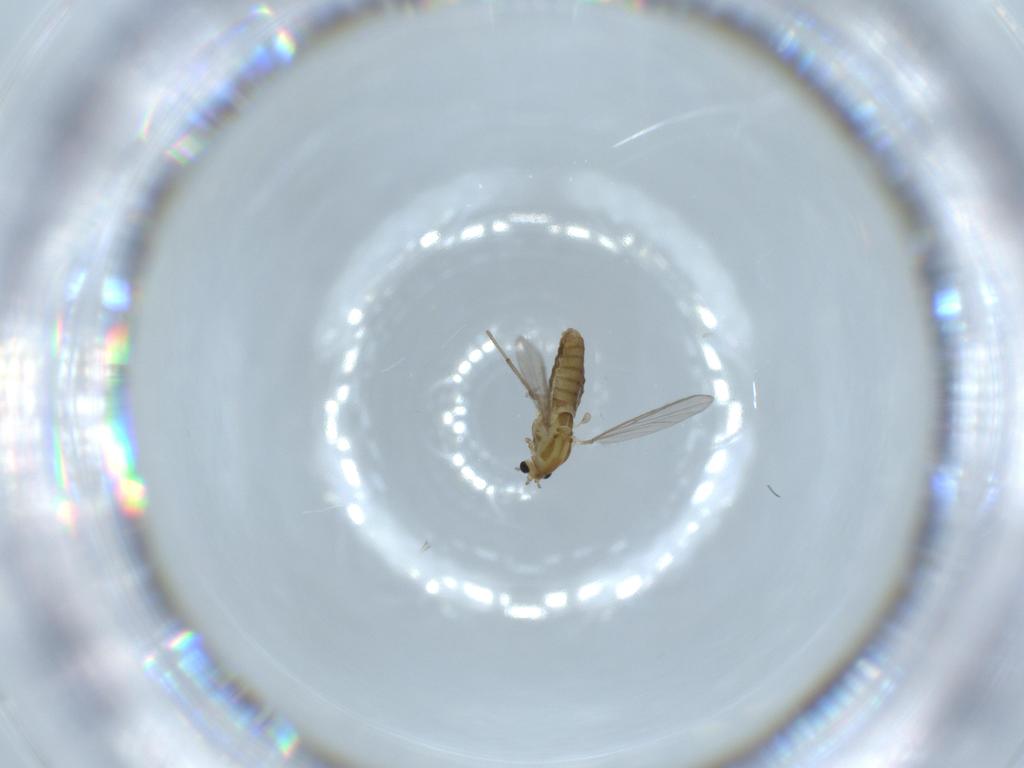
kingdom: Animalia
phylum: Arthropoda
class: Insecta
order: Diptera
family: Chironomidae
